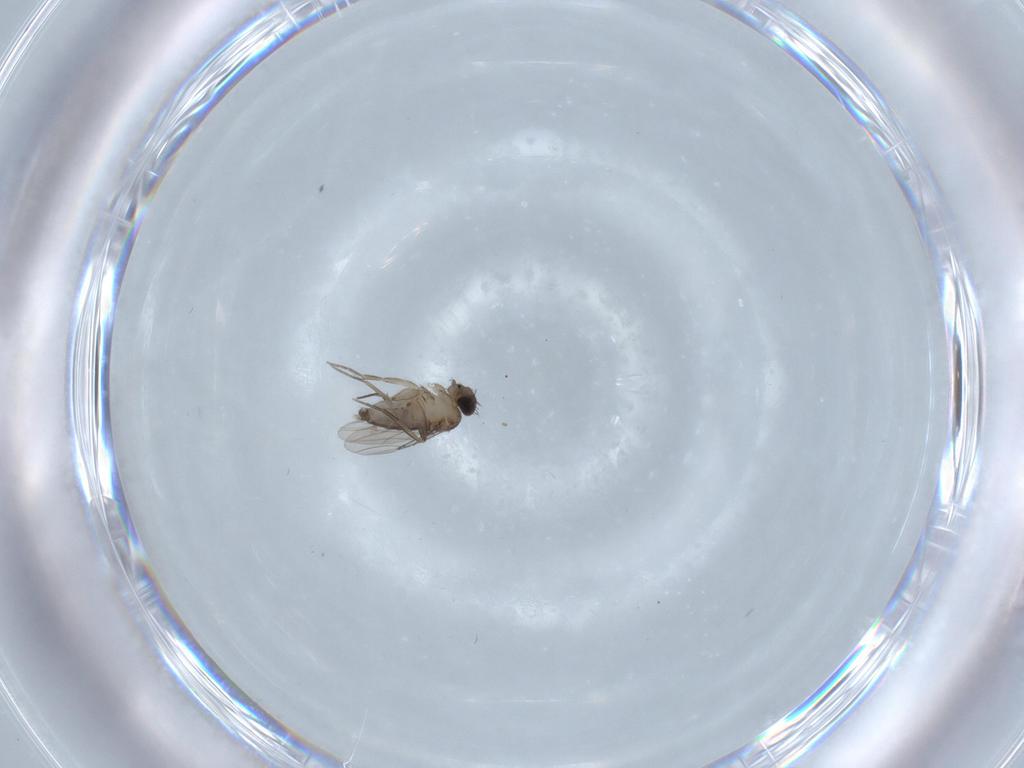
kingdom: Animalia
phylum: Arthropoda
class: Insecta
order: Diptera
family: Phoridae
